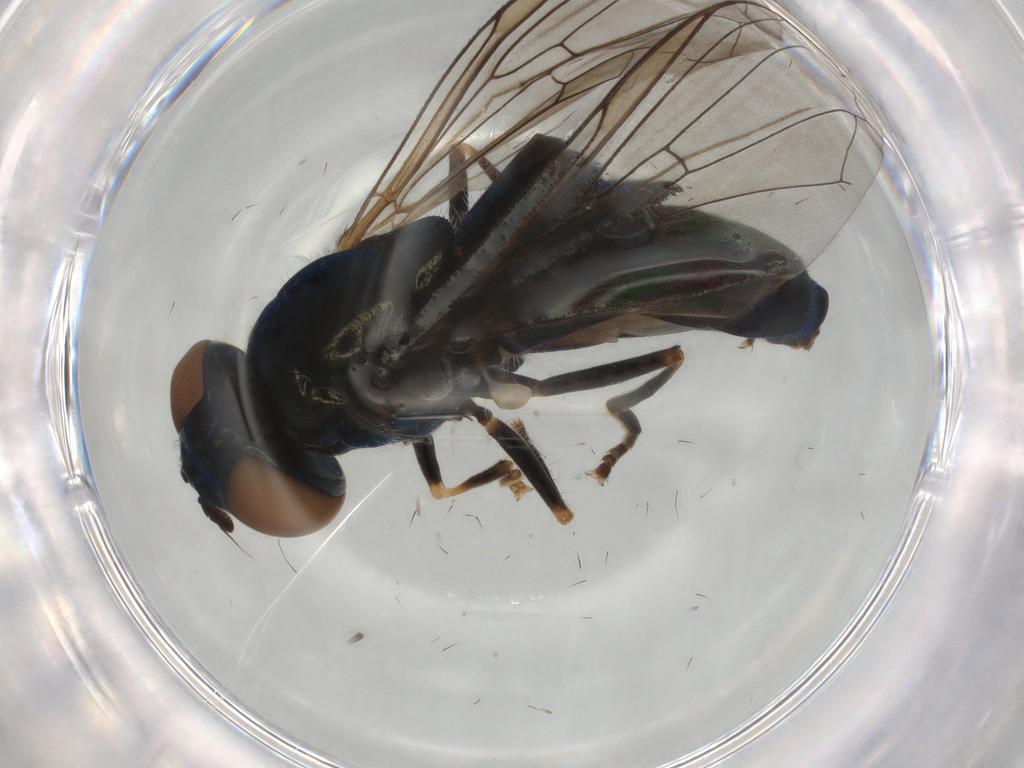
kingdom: Animalia
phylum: Arthropoda
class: Insecta
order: Diptera
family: Syrphidae
